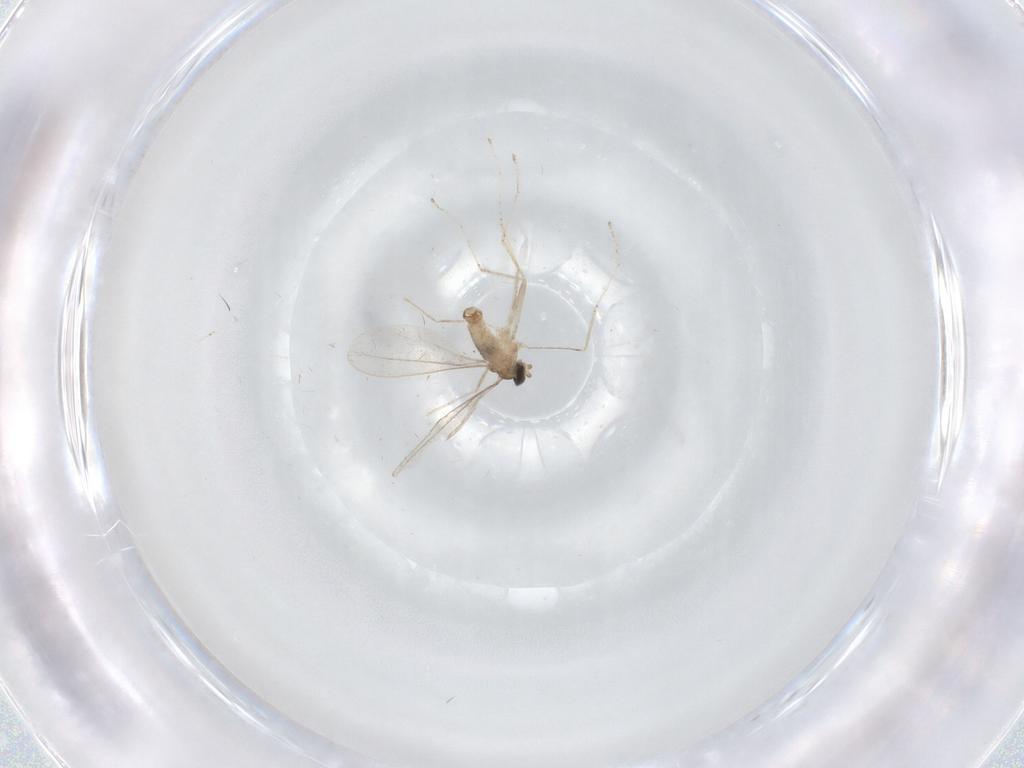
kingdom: Animalia
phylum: Arthropoda
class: Insecta
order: Diptera
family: Cecidomyiidae
